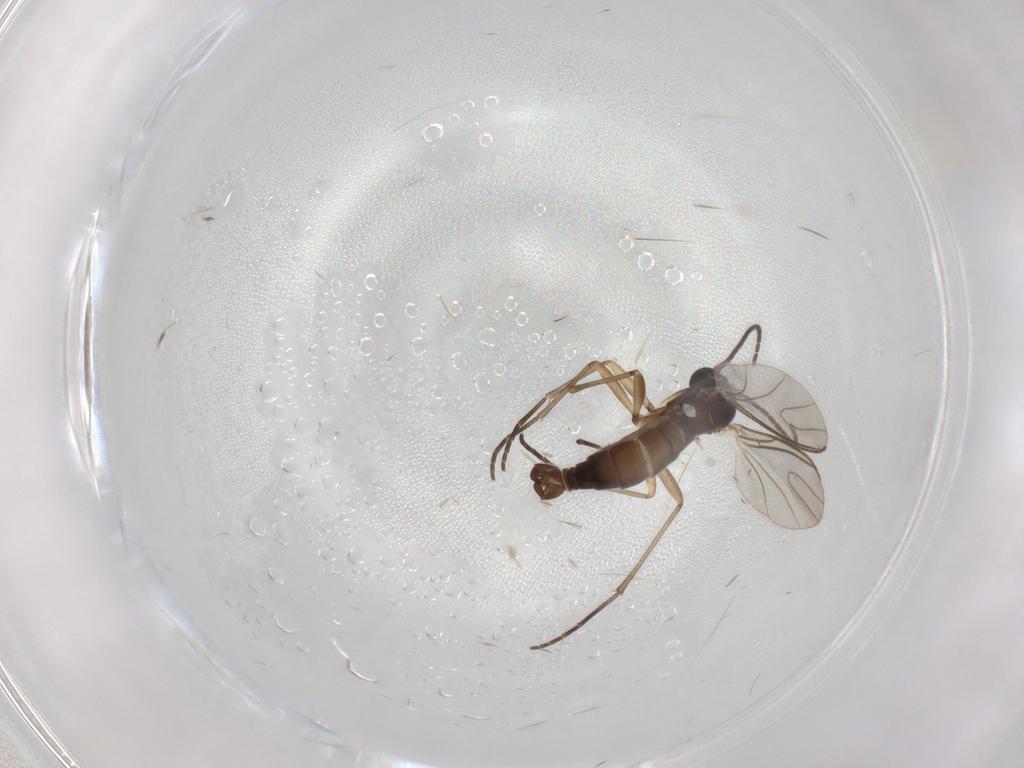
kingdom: Animalia
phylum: Arthropoda
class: Insecta
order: Diptera
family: Sciaridae
